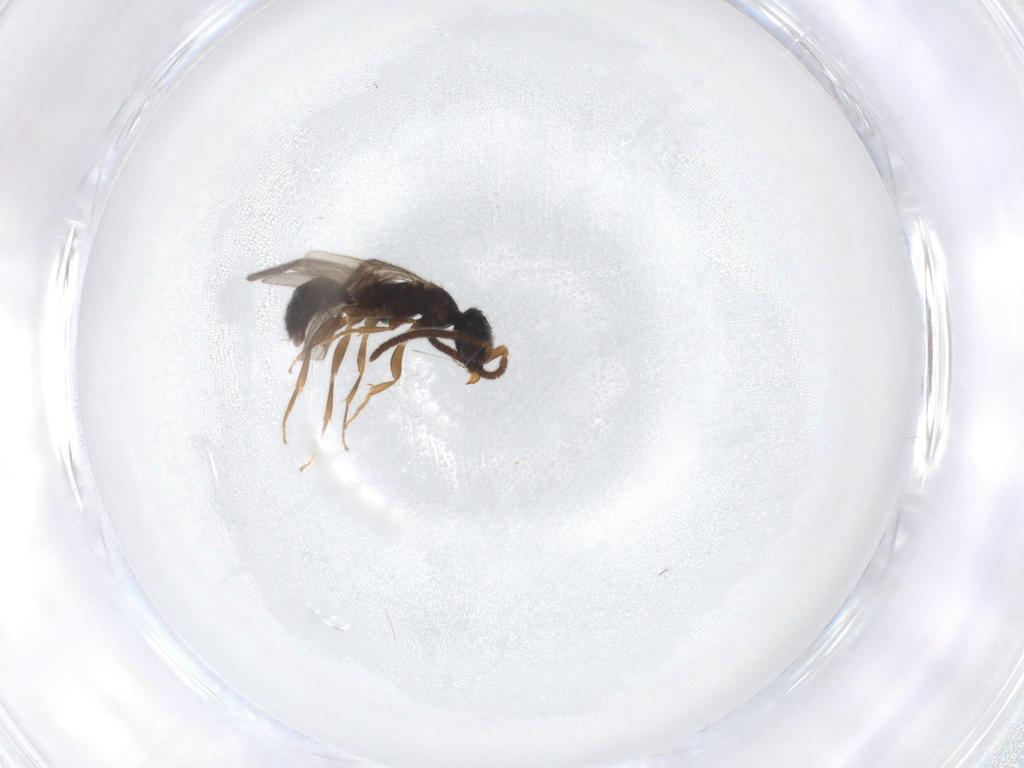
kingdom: Animalia
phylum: Arthropoda
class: Insecta
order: Hymenoptera
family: Bethylidae
